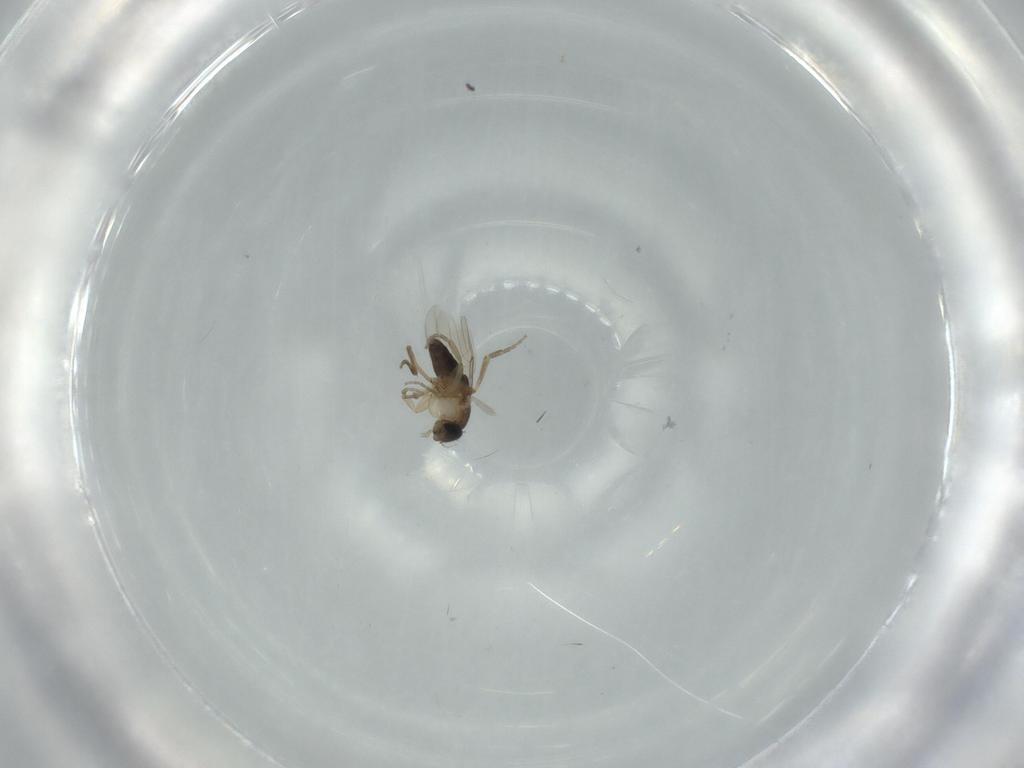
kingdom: Animalia
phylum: Arthropoda
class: Insecta
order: Diptera
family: Phoridae
